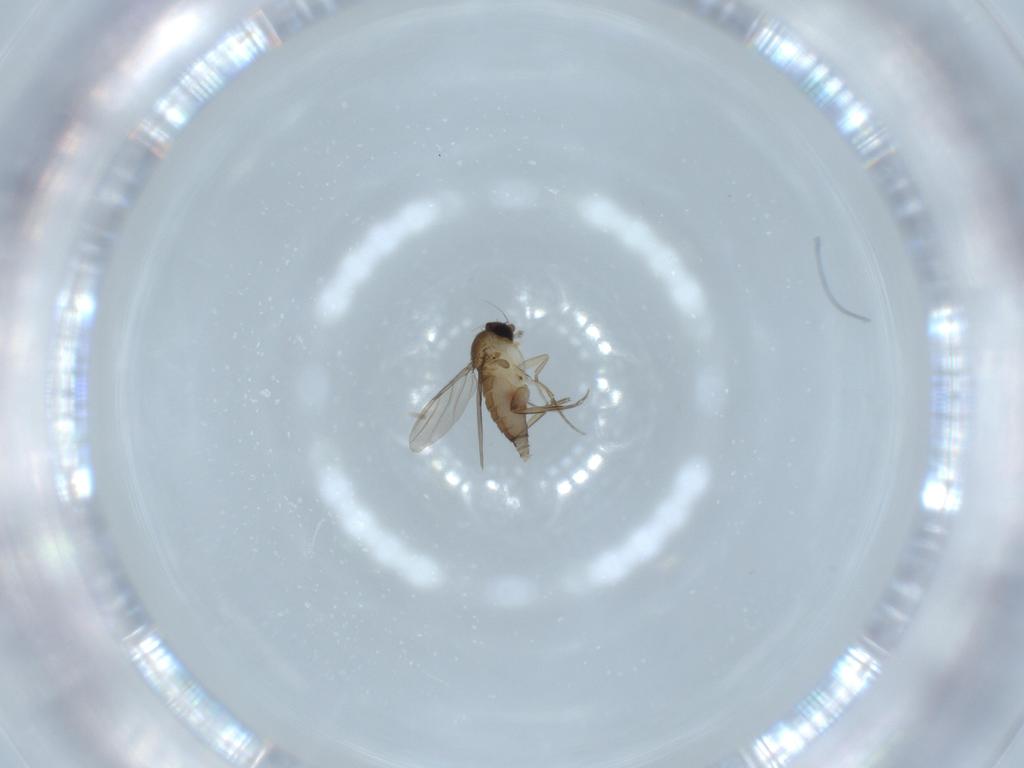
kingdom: Animalia
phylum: Arthropoda
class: Insecta
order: Diptera
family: Phoridae
